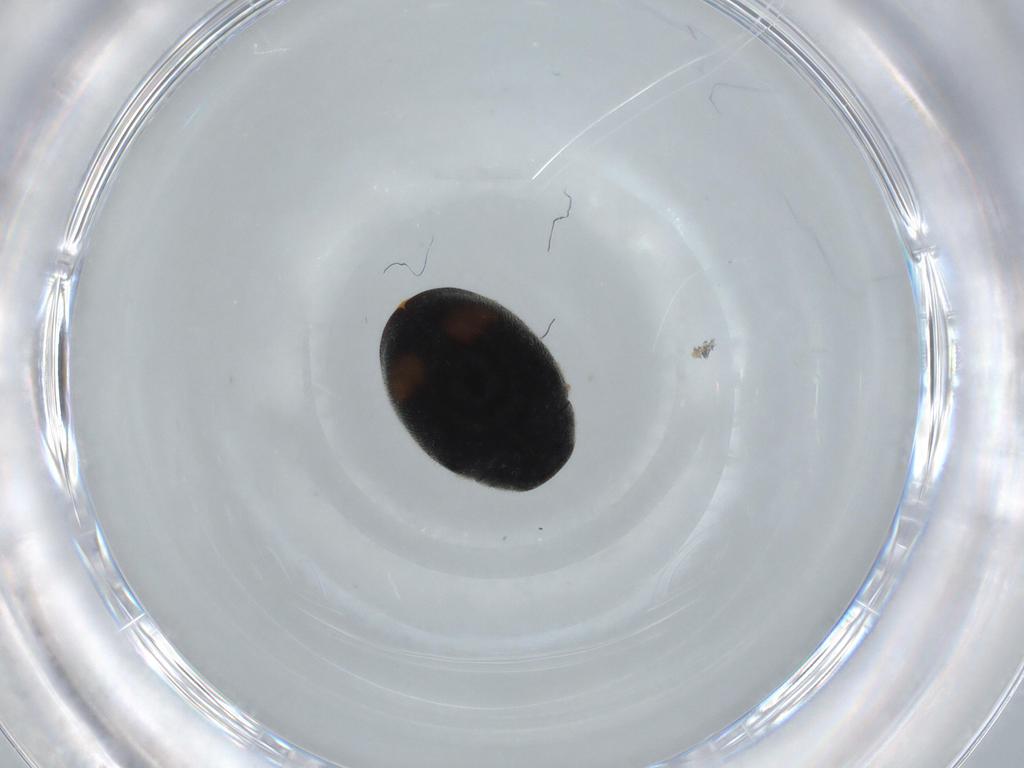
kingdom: Animalia
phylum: Arthropoda
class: Insecta
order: Coleoptera
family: Coccinellidae
